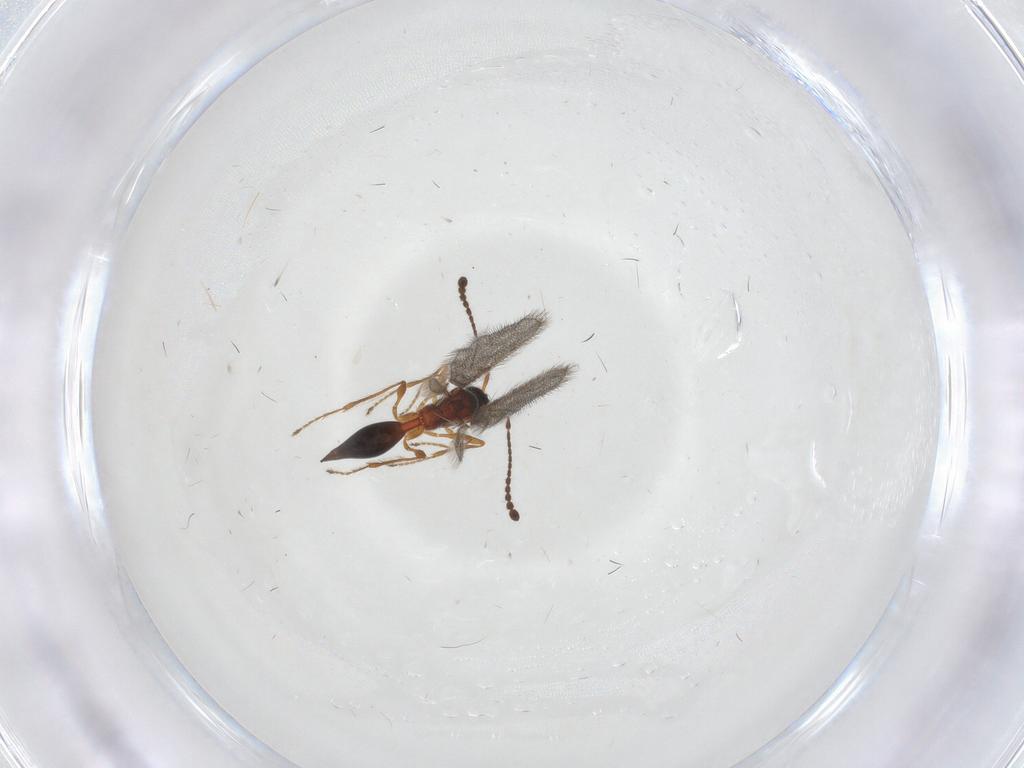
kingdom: Animalia
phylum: Arthropoda
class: Insecta
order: Hymenoptera
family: Diapriidae
